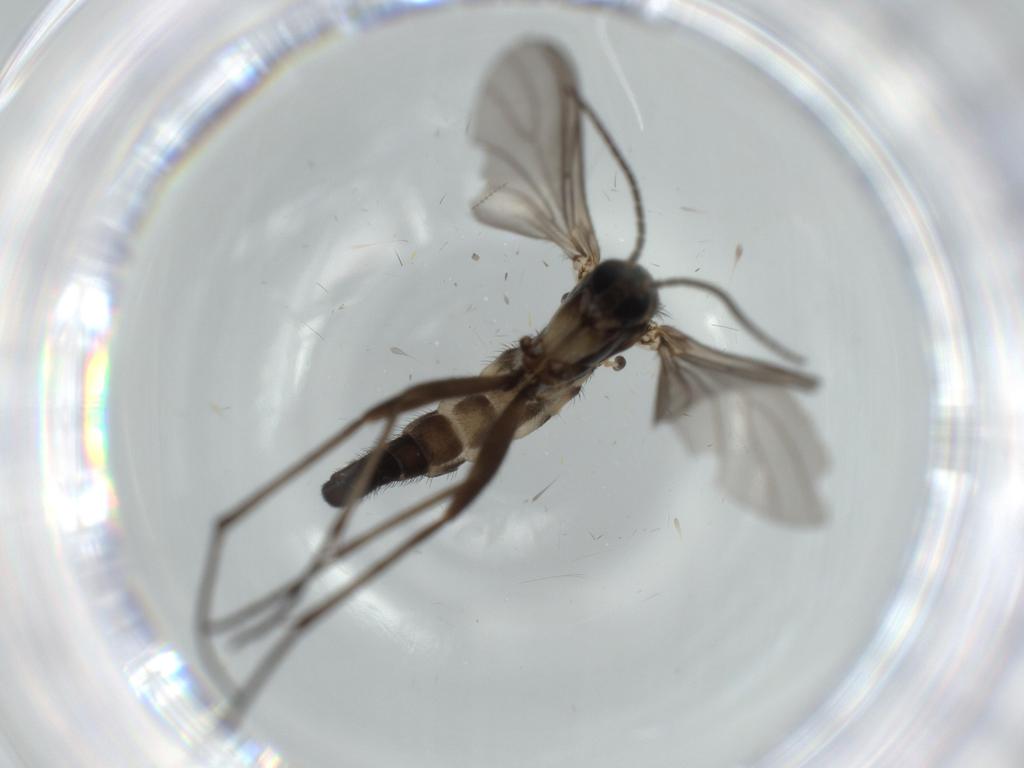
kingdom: Animalia
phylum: Arthropoda
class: Insecta
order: Diptera
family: Sciaridae
